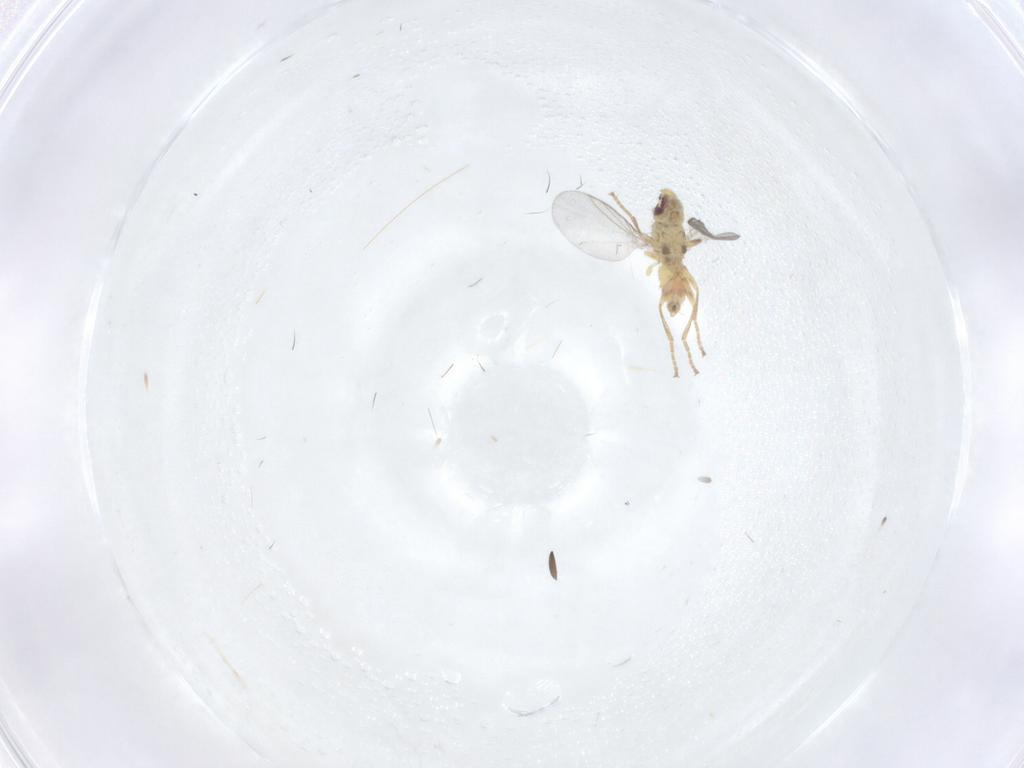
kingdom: Animalia
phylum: Arthropoda
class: Insecta
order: Diptera
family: Agromyzidae
